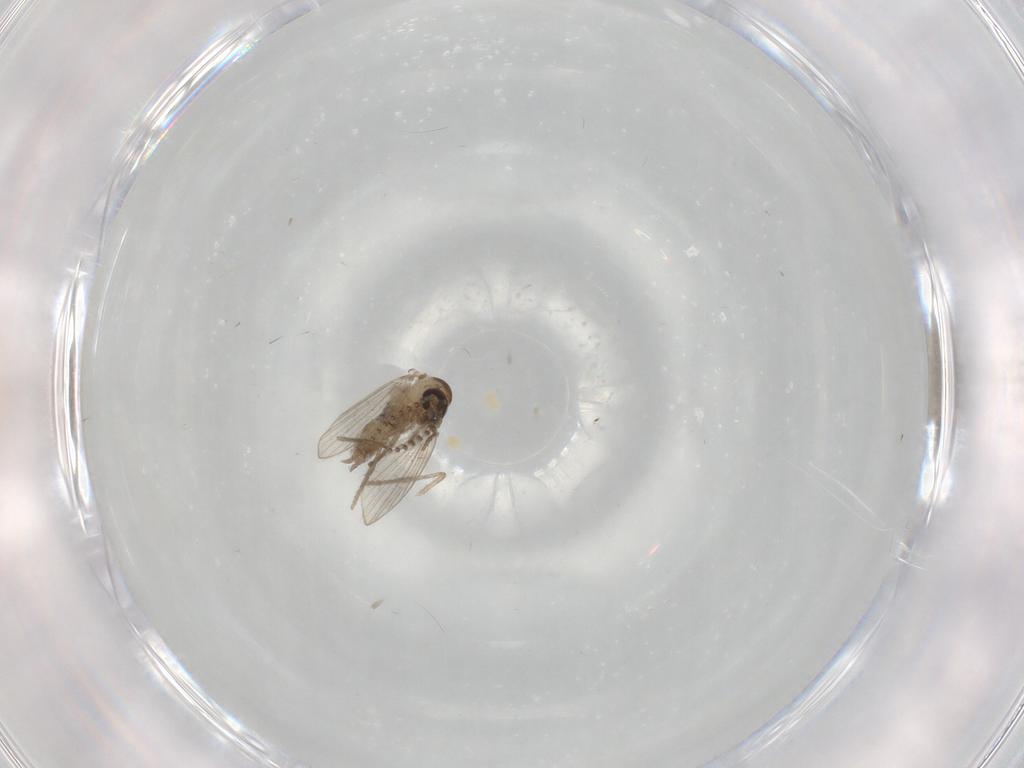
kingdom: Animalia
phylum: Arthropoda
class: Insecta
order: Diptera
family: Psychodidae
